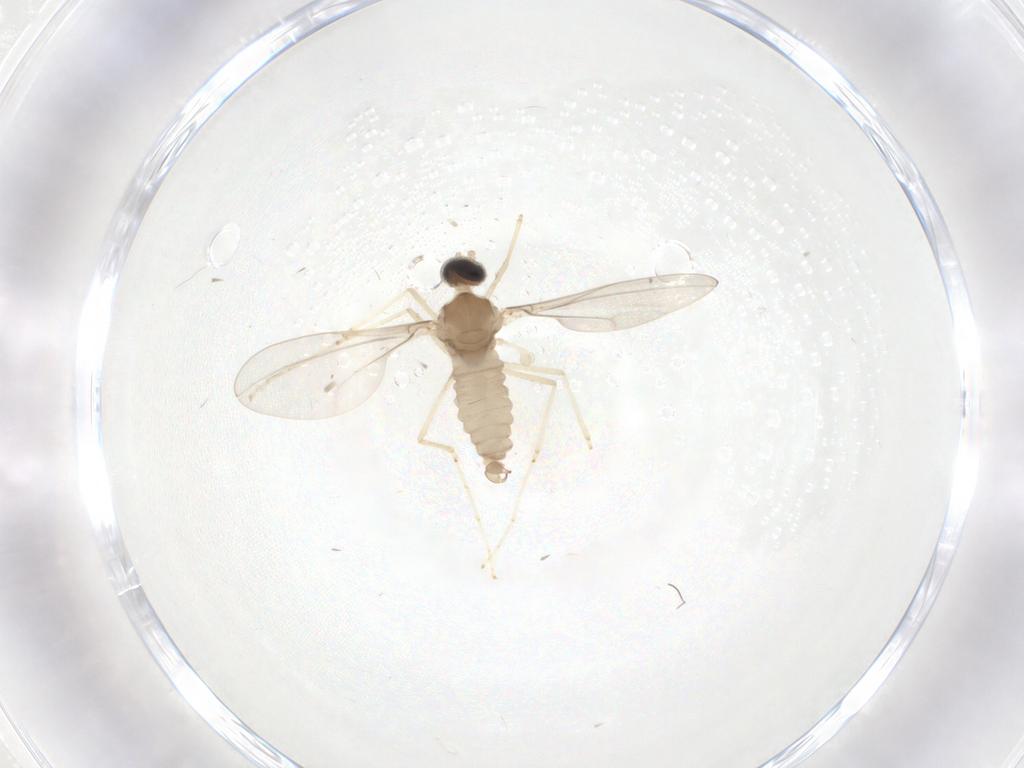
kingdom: Animalia
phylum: Arthropoda
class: Insecta
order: Diptera
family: Cecidomyiidae
